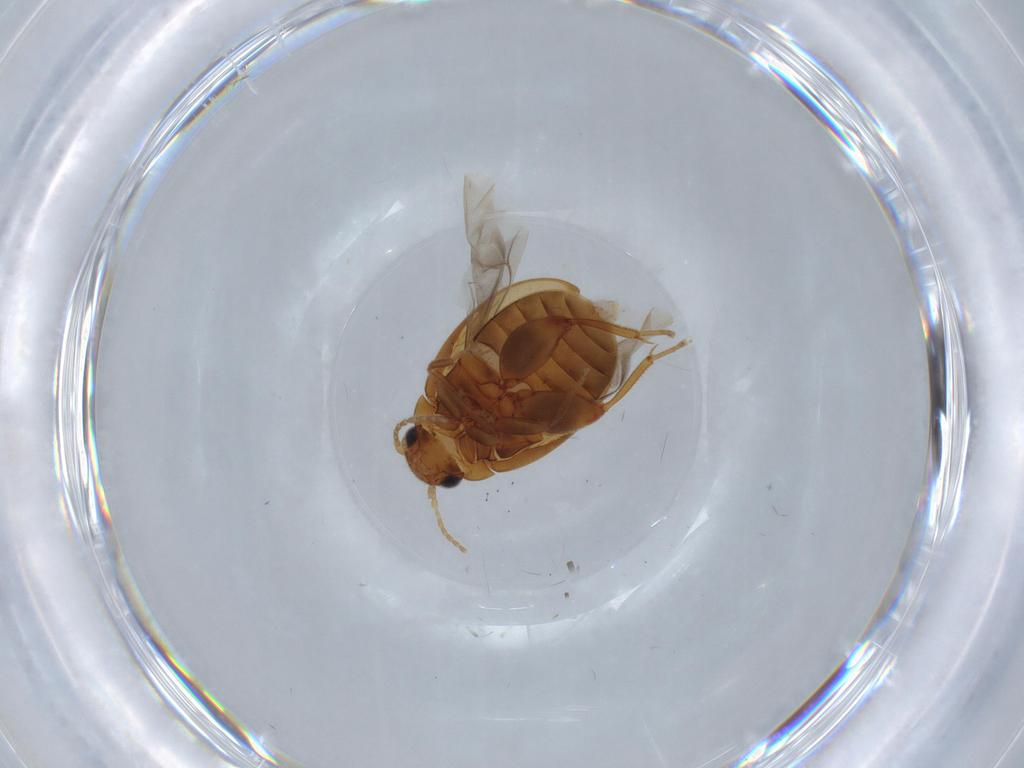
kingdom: Animalia
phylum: Arthropoda
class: Insecta
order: Coleoptera
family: Scirtidae
